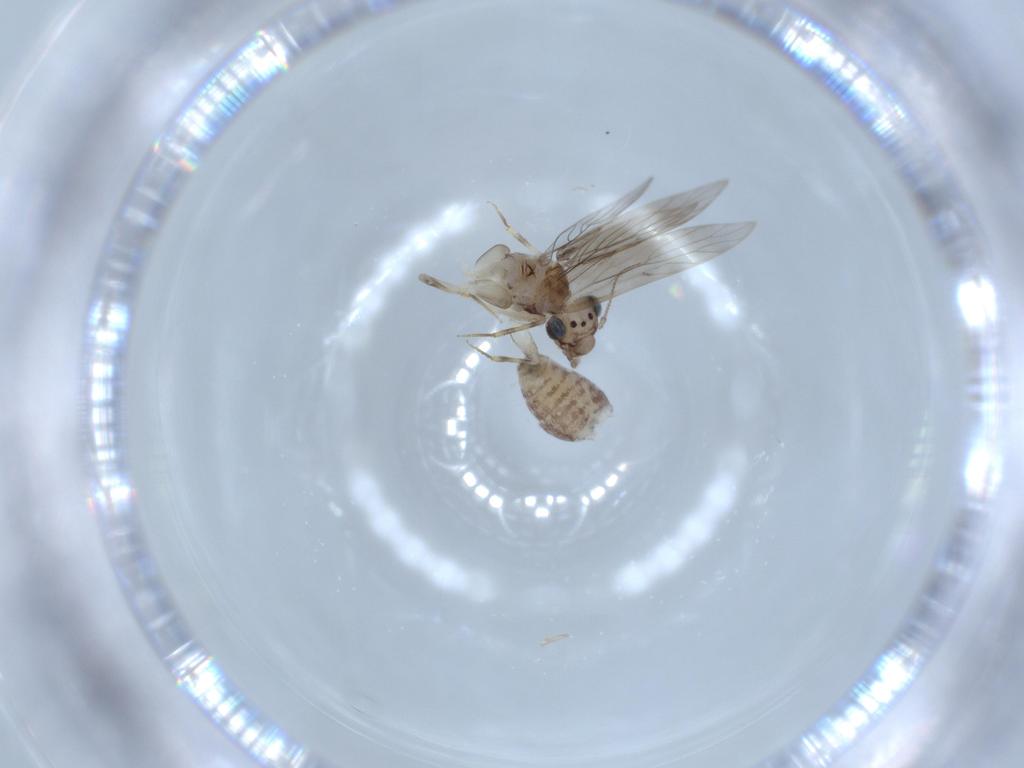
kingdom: Animalia
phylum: Arthropoda
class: Insecta
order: Psocodea
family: Lepidopsocidae
